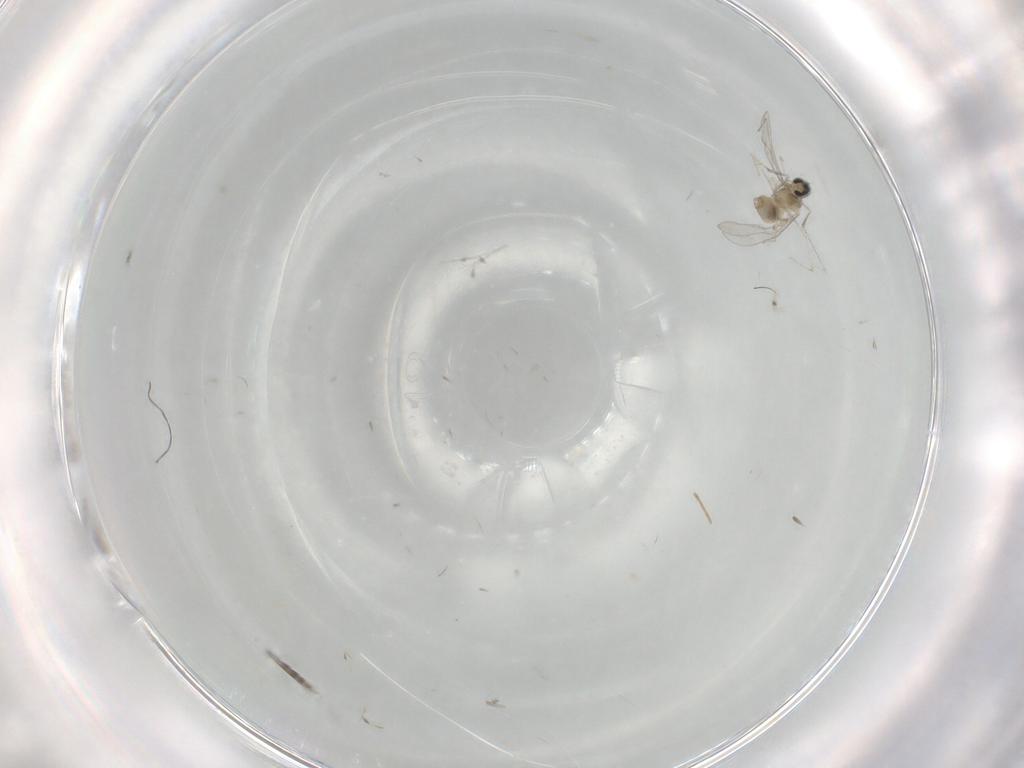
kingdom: Animalia
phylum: Arthropoda
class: Insecta
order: Diptera
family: Cecidomyiidae
